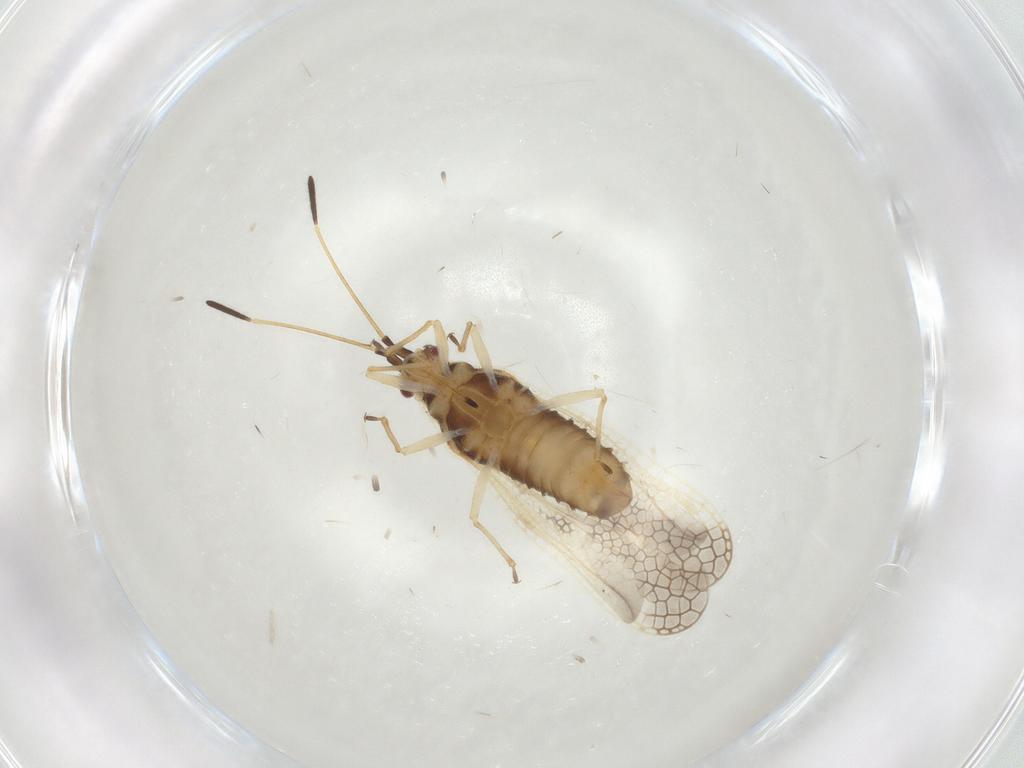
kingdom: Animalia
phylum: Arthropoda
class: Insecta
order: Hemiptera
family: Tingidae
